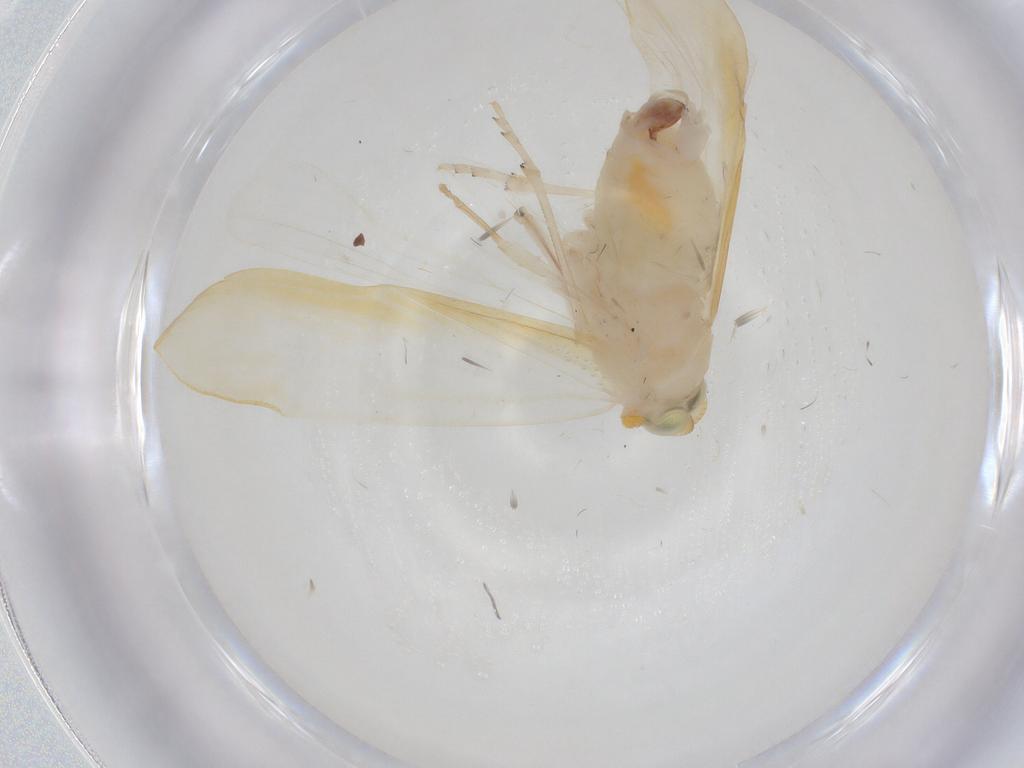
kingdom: Animalia
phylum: Arthropoda
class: Insecta
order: Hemiptera
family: Derbidae
